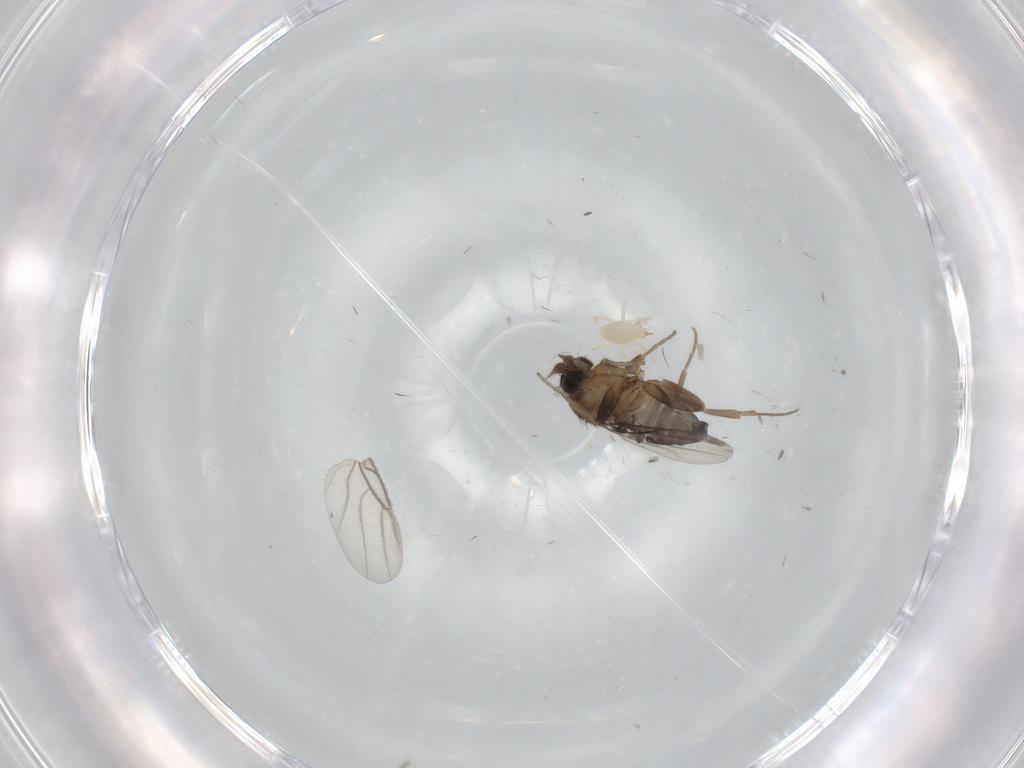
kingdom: Animalia
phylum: Arthropoda
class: Insecta
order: Diptera
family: Phoridae
